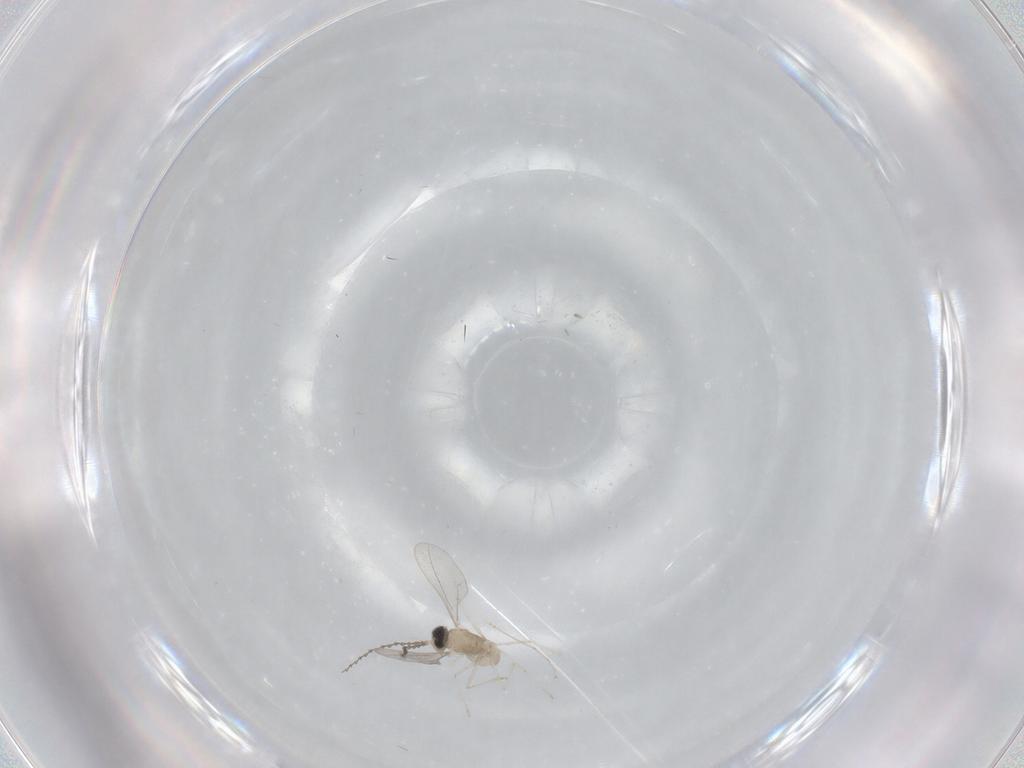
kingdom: Animalia
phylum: Arthropoda
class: Insecta
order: Diptera
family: Cecidomyiidae
